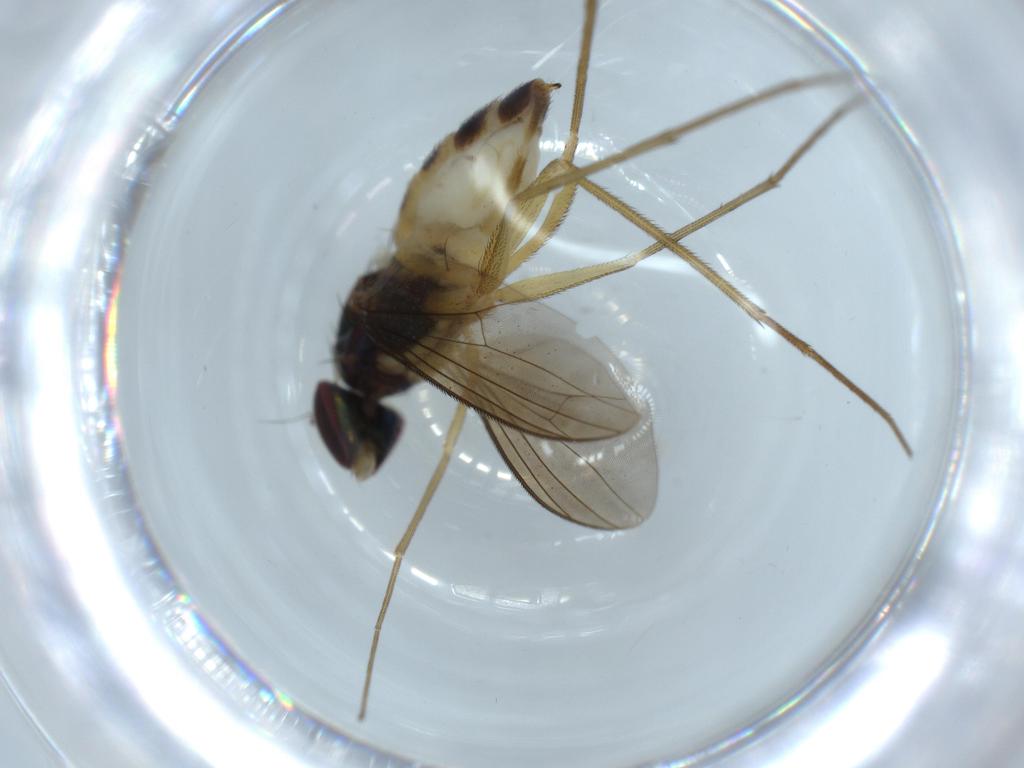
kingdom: Animalia
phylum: Arthropoda
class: Insecta
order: Diptera
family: Dolichopodidae
